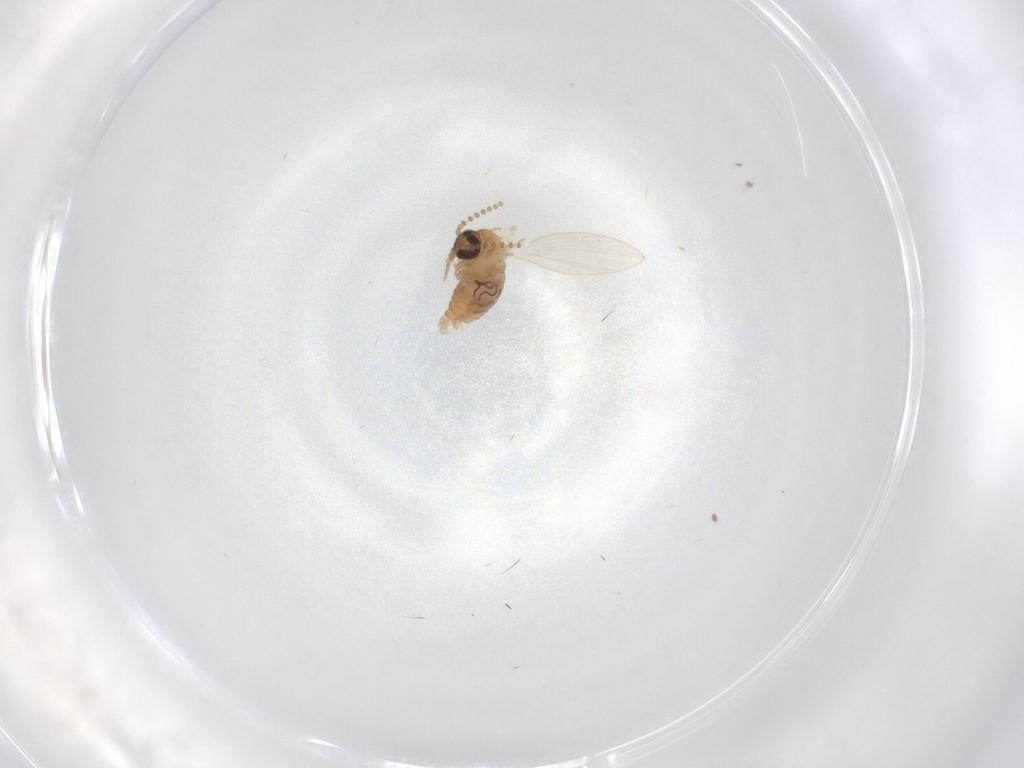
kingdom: Animalia
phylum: Arthropoda
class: Insecta
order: Diptera
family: Psychodidae
